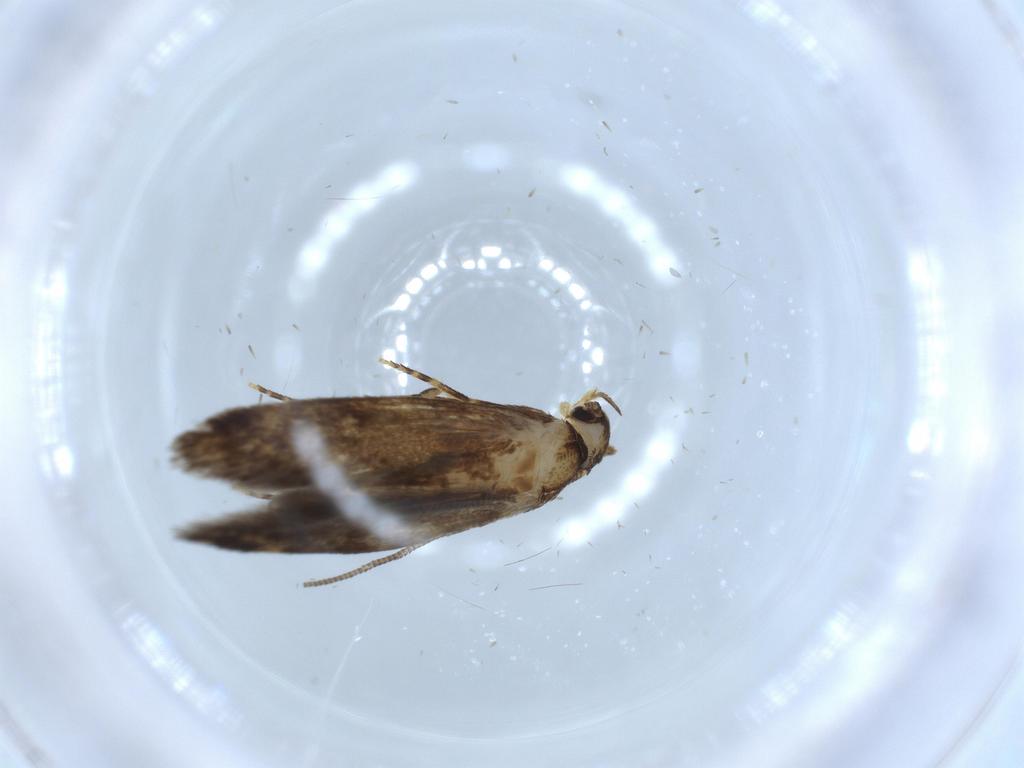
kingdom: Animalia
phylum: Arthropoda
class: Insecta
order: Lepidoptera
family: Tineidae
